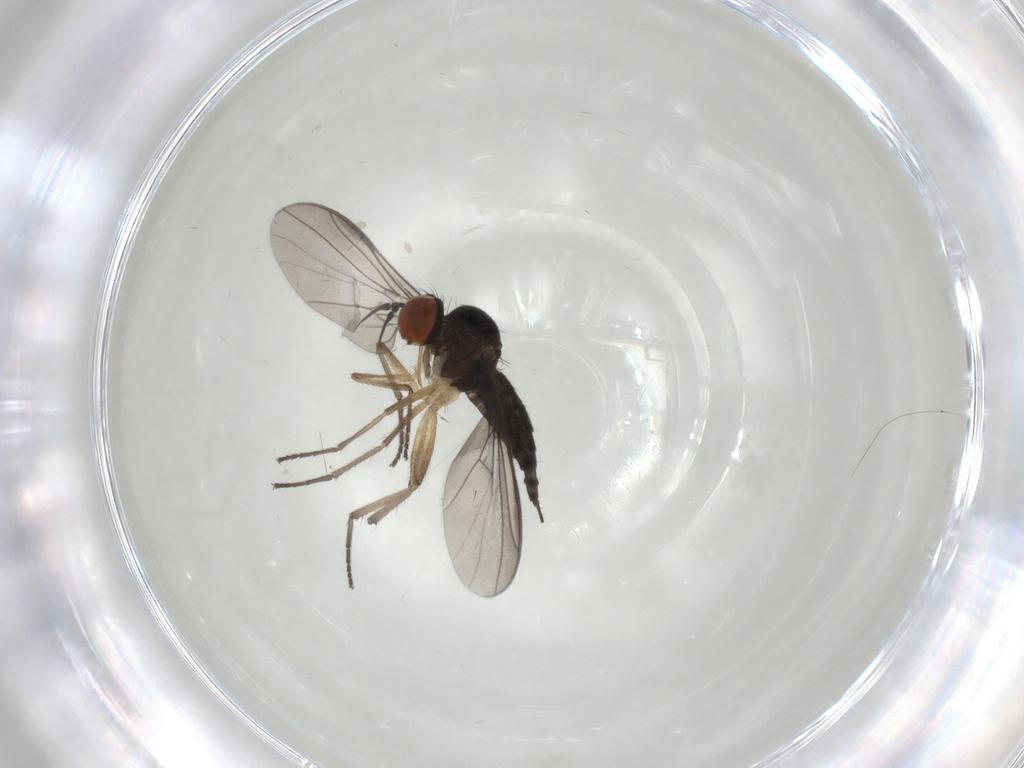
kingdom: Animalia
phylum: Arthropoda
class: Insecta
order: Diptera
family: Empididae
